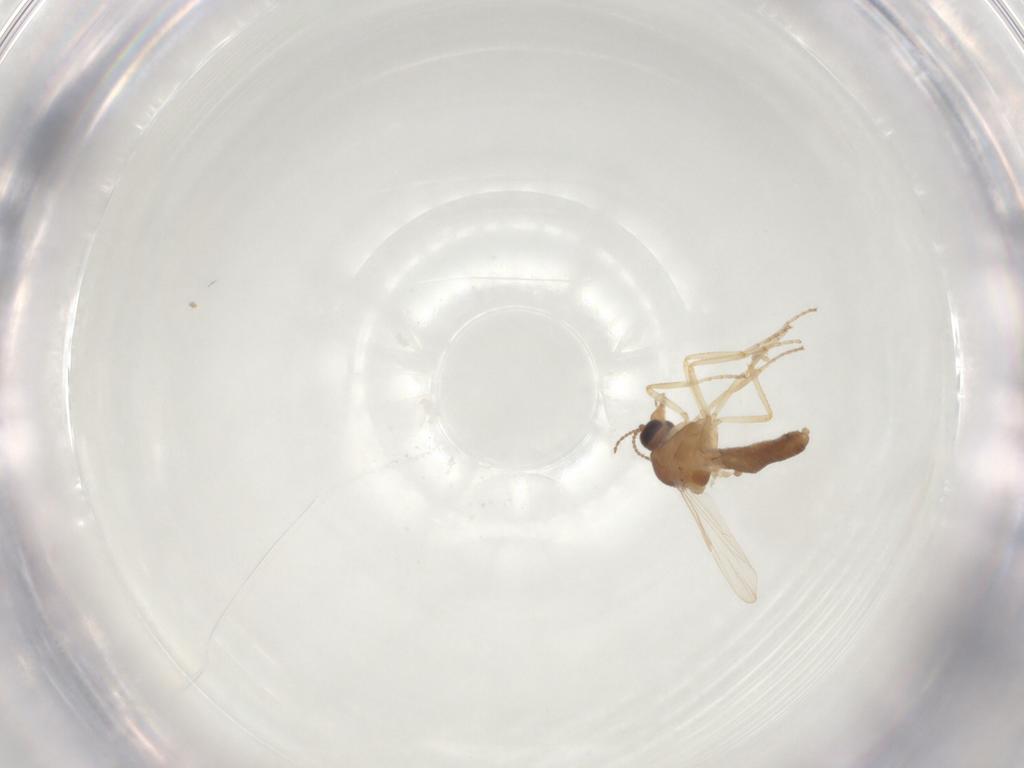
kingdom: Animalia
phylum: Arthropoda
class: Insecta
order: Diptera
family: Ceratopogonidae
